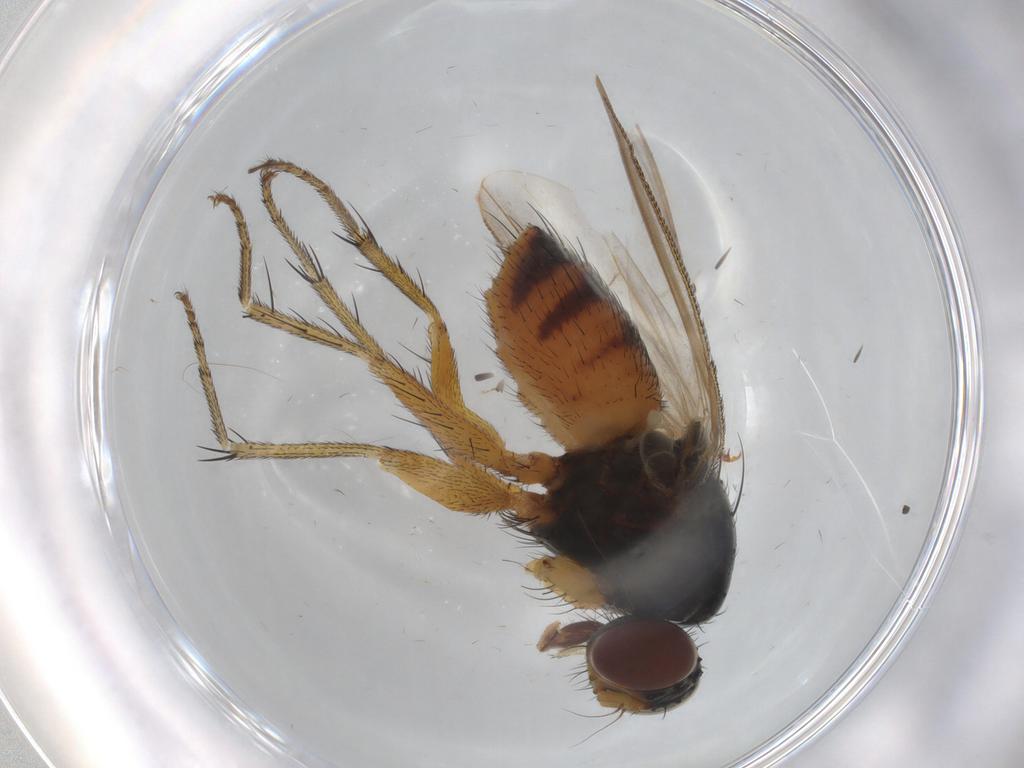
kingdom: Animalia
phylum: Arthropoda
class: Insecta
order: Diptera
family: Muscidae
